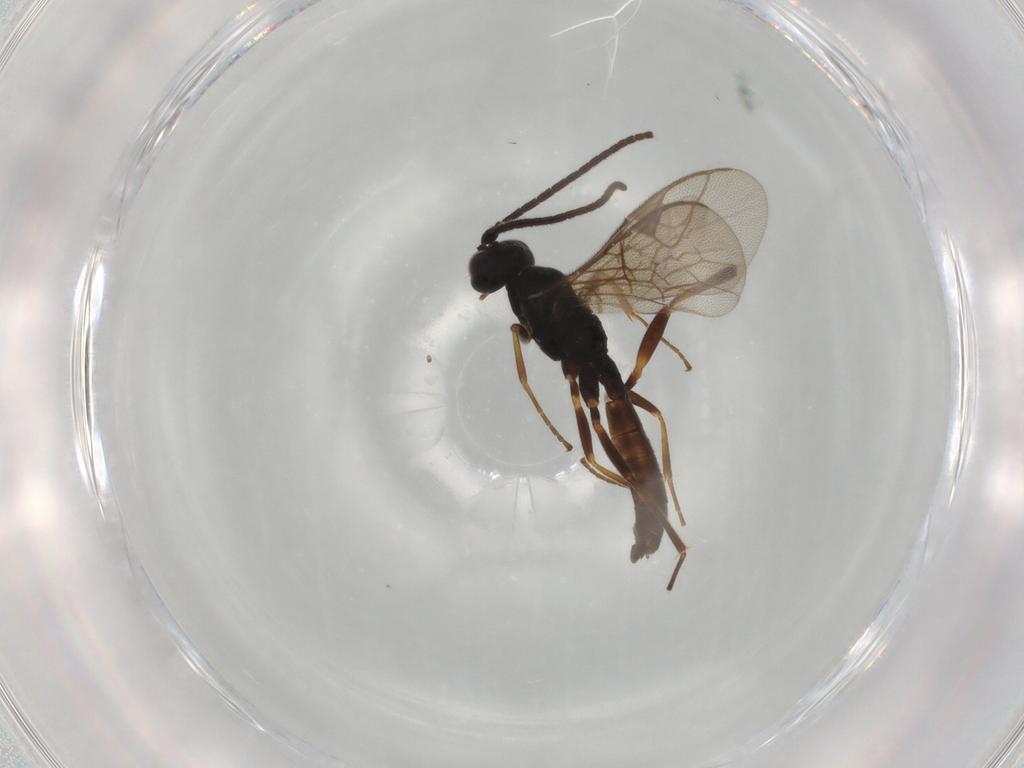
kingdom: Animalia
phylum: Arthropoda
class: Insecta
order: Hymenoptera
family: Ichneumonidae
